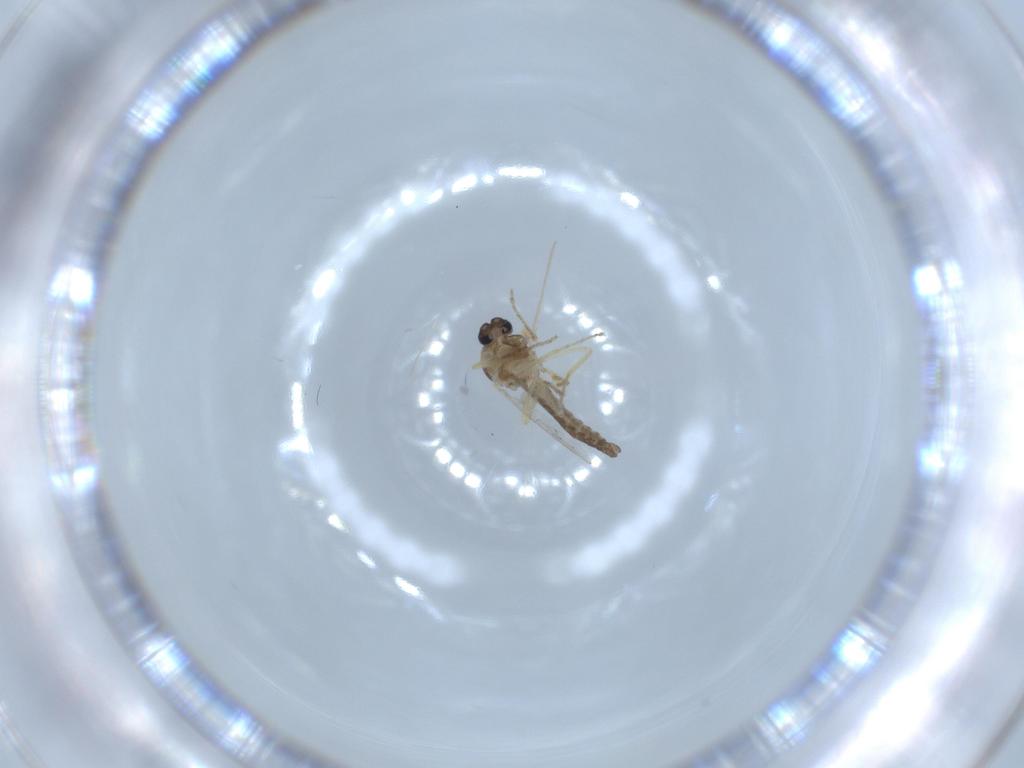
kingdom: Animalia
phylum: Arthropoda
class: Insecta
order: Diptera
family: Ceratopogonidae
